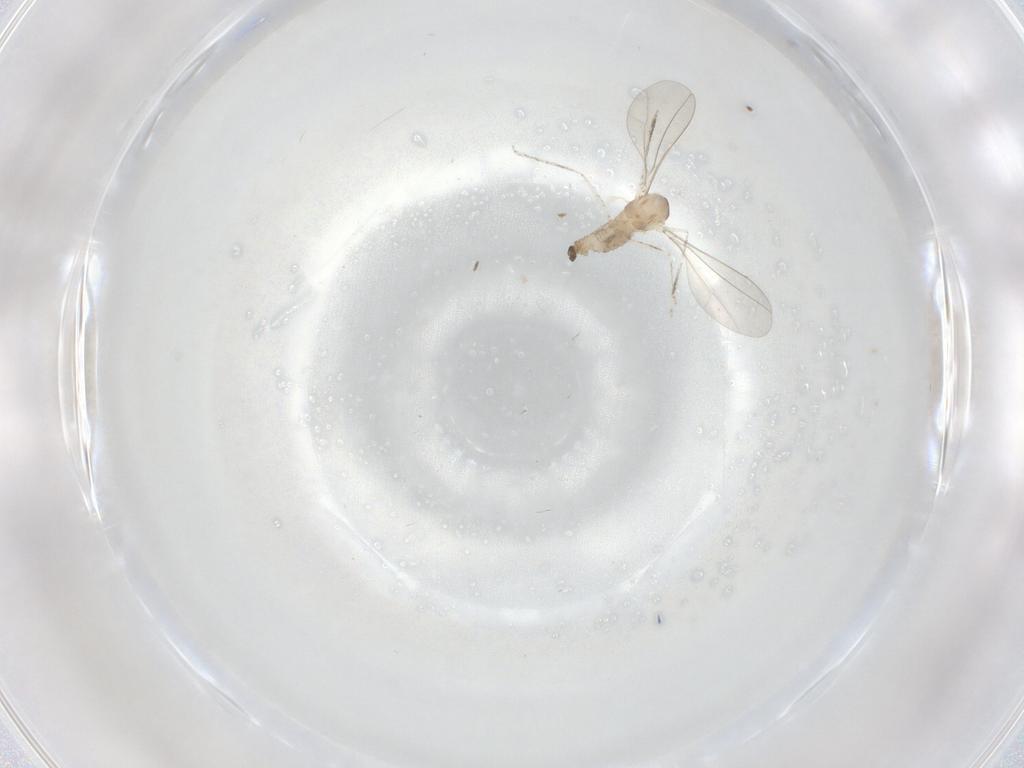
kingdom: Animalia
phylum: Arthropoda
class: Insecta
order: Diptera
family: Cecidomyiidae
